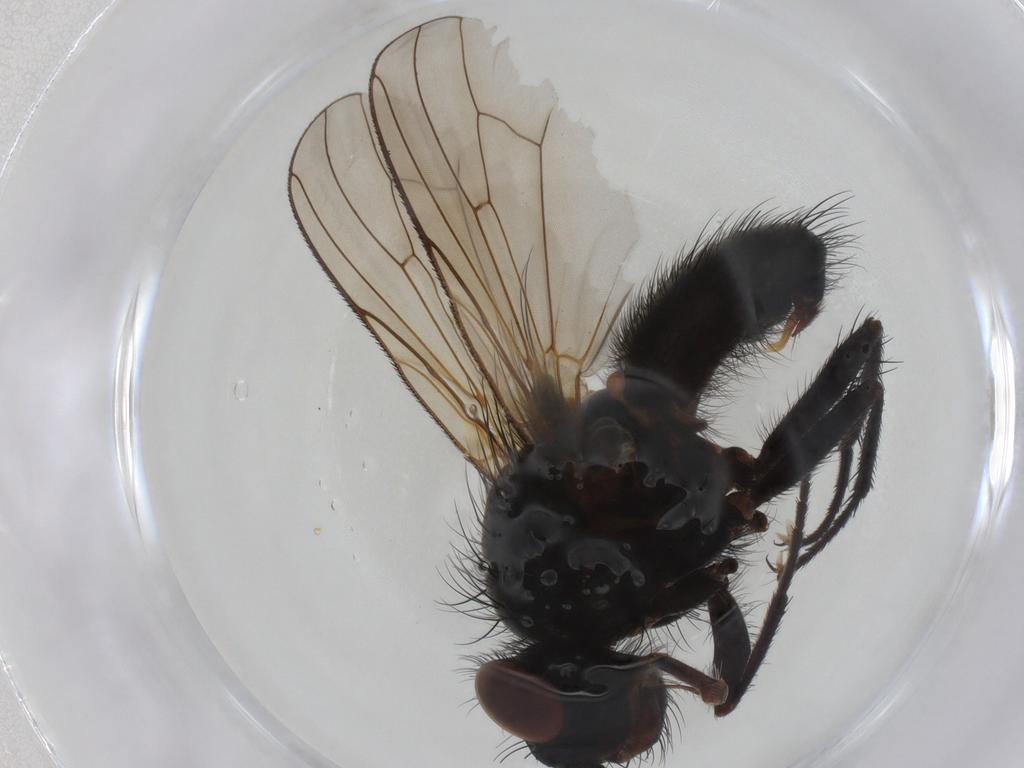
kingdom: Animalia
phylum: Arthropoda
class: Insecta
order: Diptera
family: Anthomyiidae
